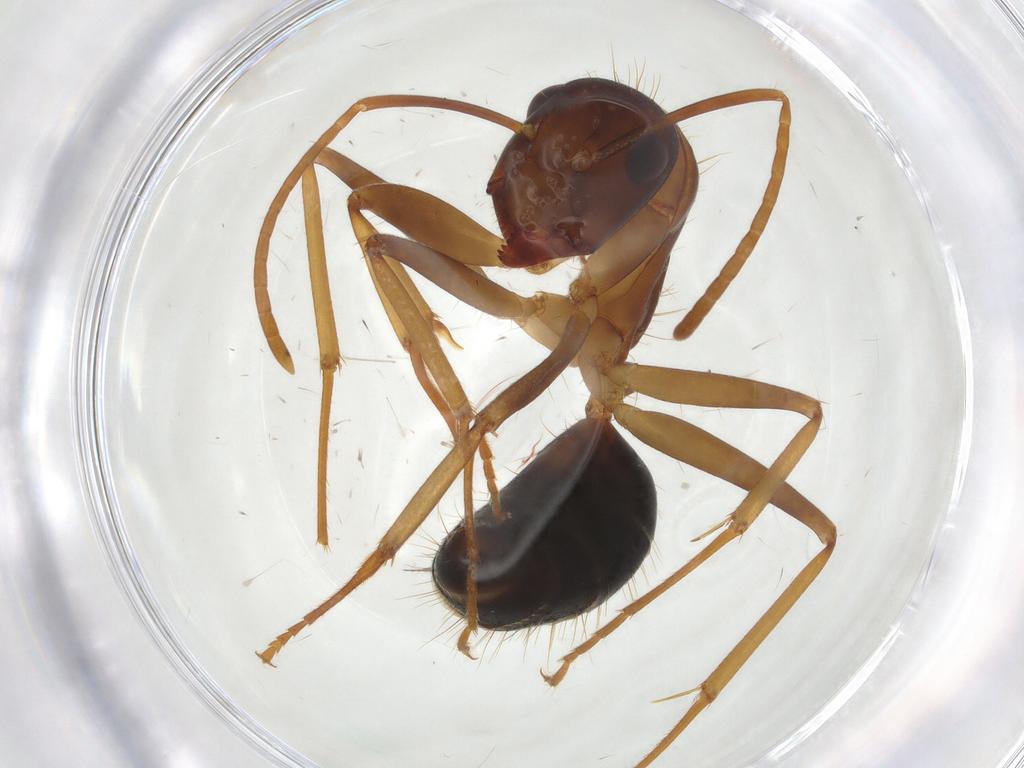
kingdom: Animalia
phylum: Arthropoda
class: Insecta
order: Hymenoptera
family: Formicidae
